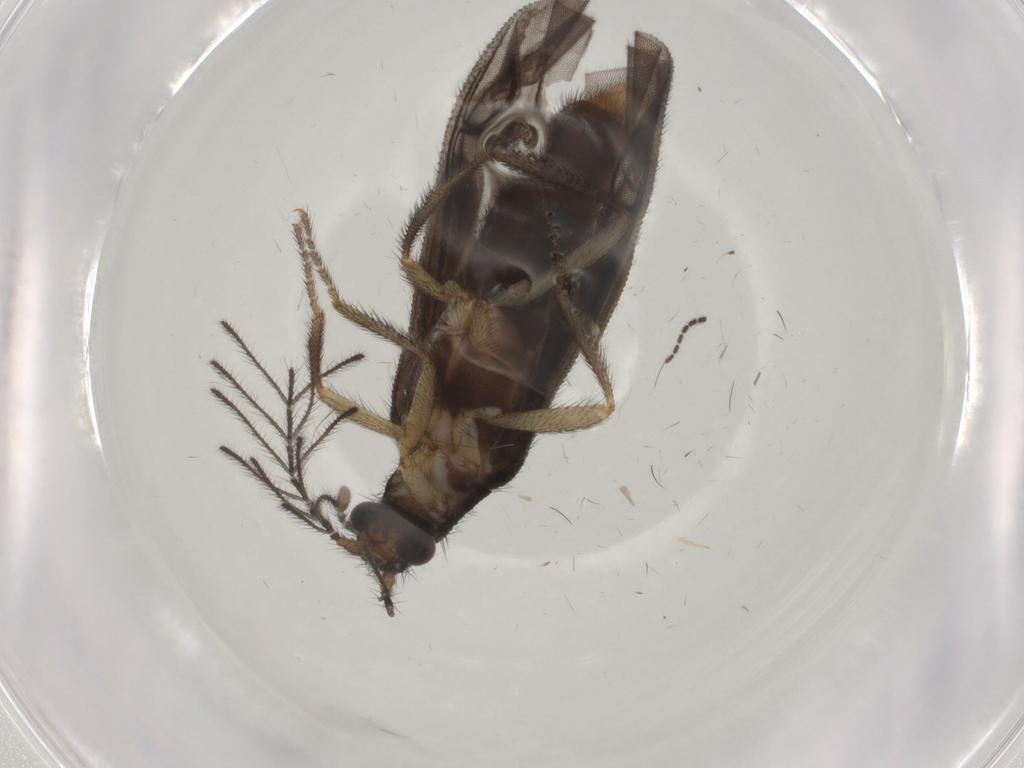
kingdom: Animalia
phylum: Arthropoda
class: Insecta
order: Coleoptera
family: Phengodidae
